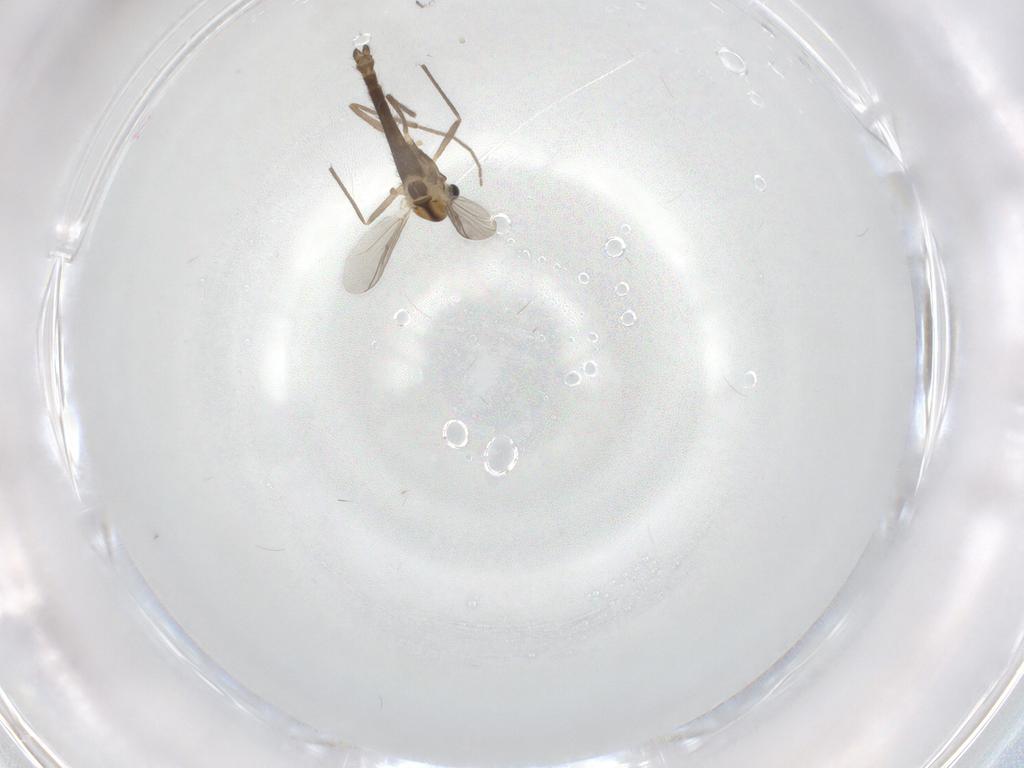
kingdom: Animalia
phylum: Arthropoda
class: Insecta
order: Diptera
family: Chironomidae
